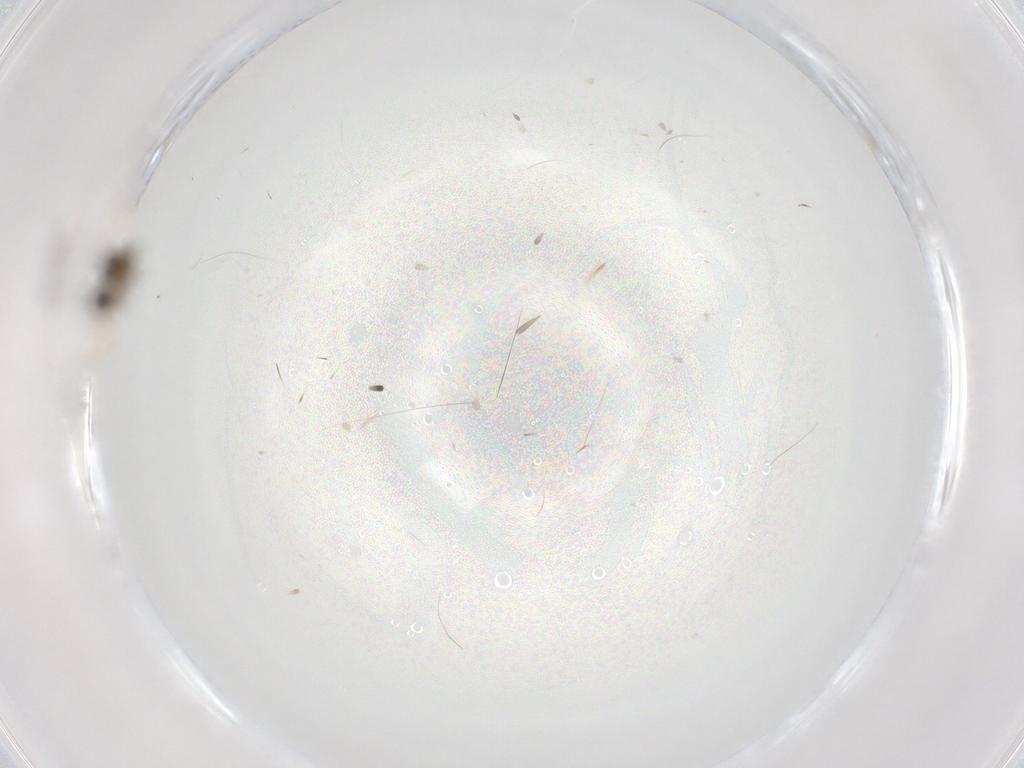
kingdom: Animalia
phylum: Arthropoda
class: Insecta
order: Diptera
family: Cecidomyiidae
